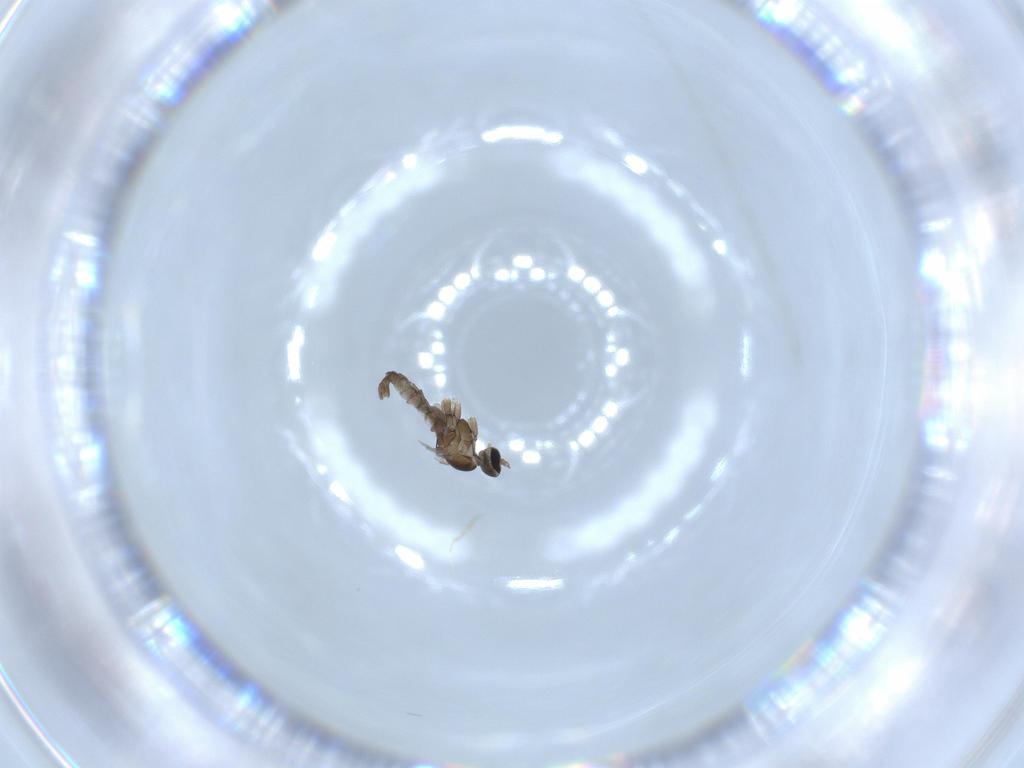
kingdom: Animalia
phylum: Arthropoda
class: Insecta
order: Diptera
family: Cecidomyiidae
